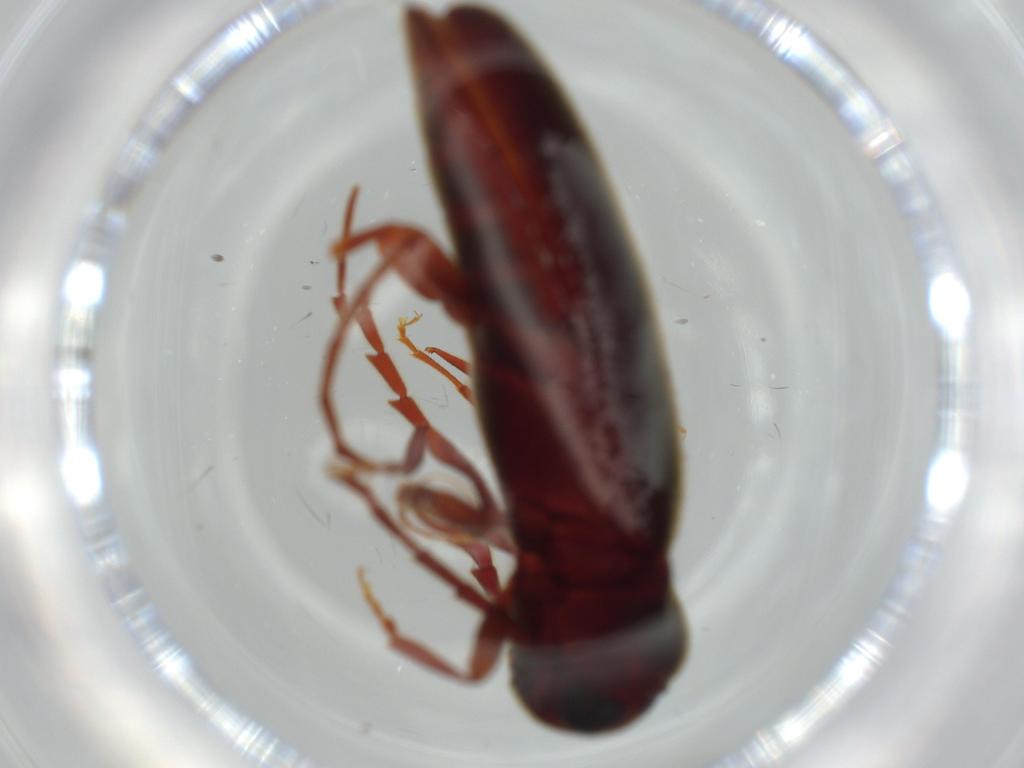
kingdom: Animalia
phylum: Arthropoda
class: Insecta
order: Coleoptera
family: Eucnemidae
